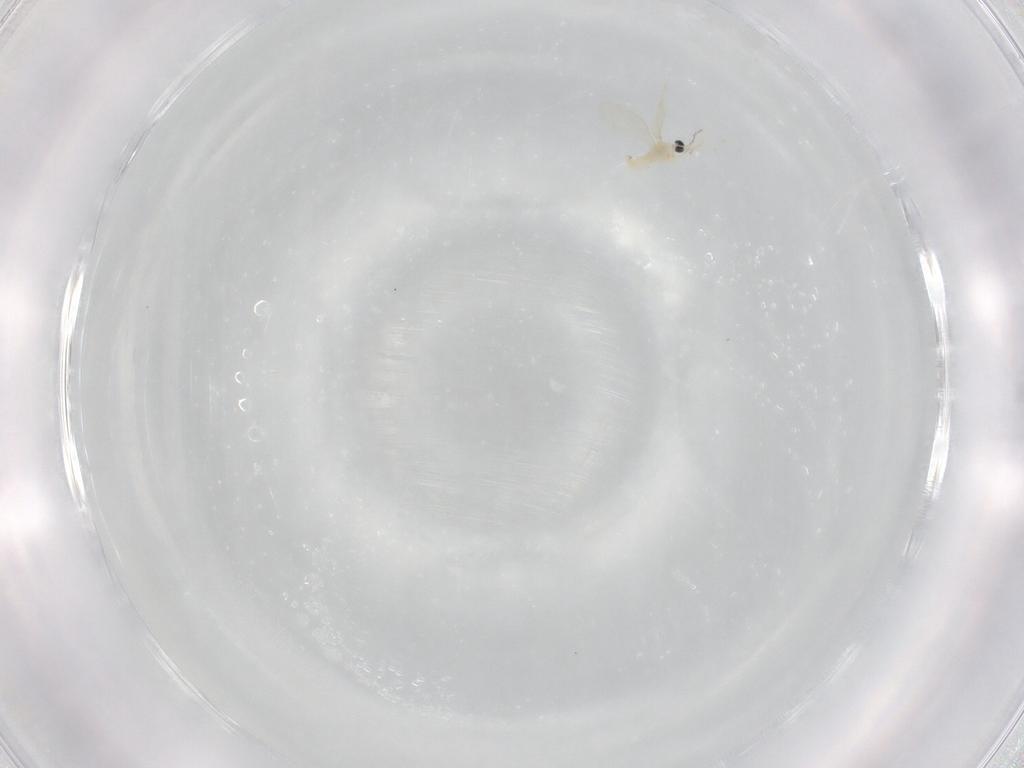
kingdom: Animalia
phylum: Arthropoda
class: Insecta
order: Diptera
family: Cecidomyiidae
